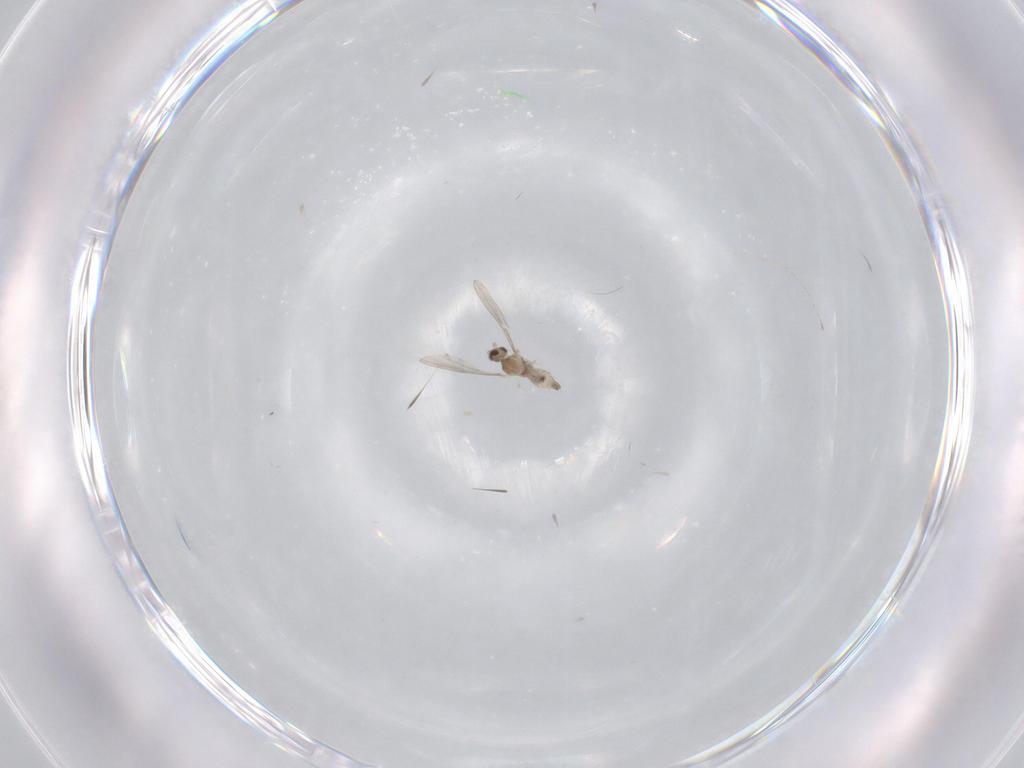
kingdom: Animalia
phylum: Arthropoda
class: Insecta
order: Diptera
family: Cecidomyiidae
